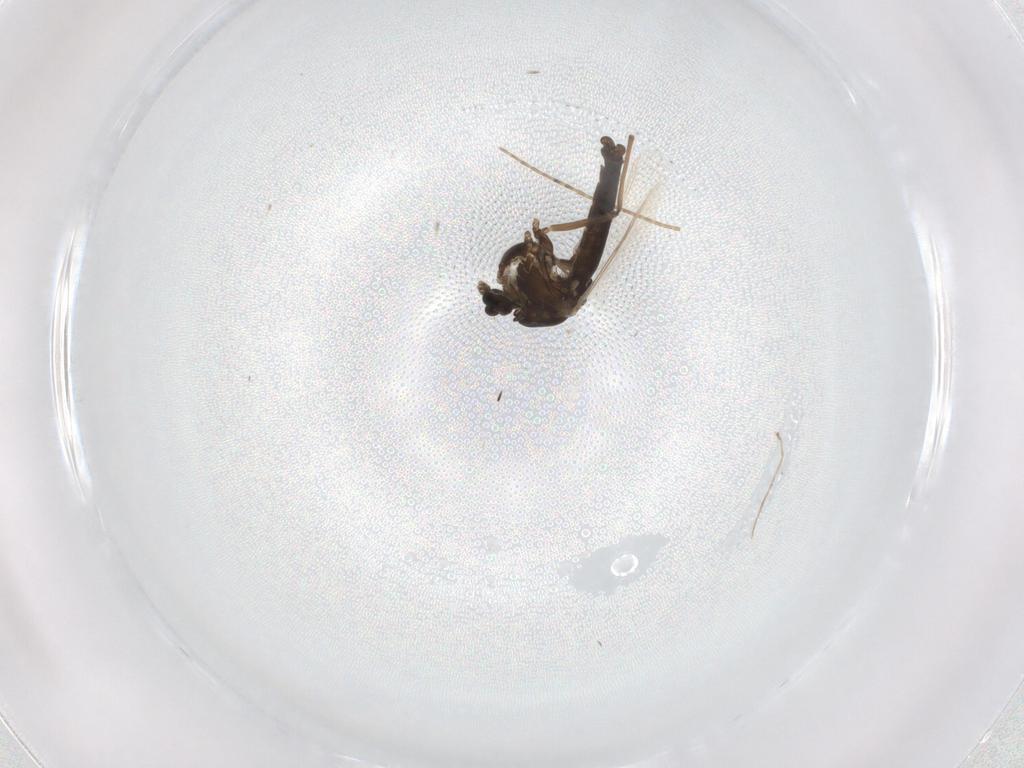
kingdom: Animalia
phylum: Arthropoda
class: Insecta
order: Diptera
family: Chironomidae
